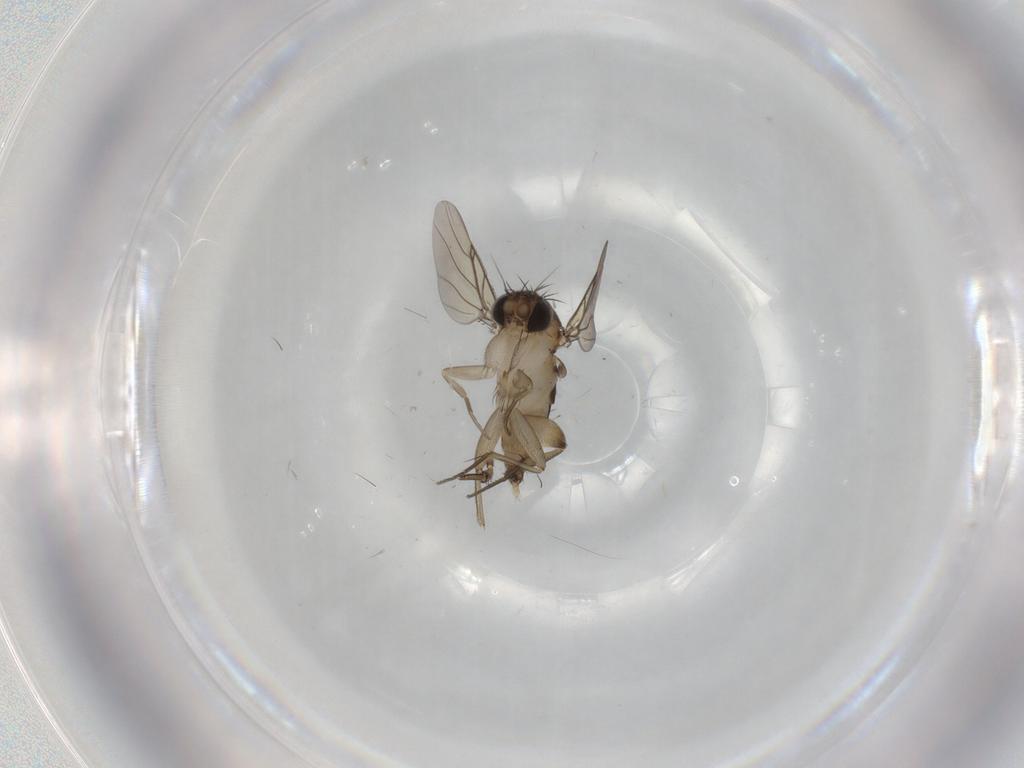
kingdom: Animalia
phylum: Arthropoda
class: Insecta
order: Diptera
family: Phoridae
